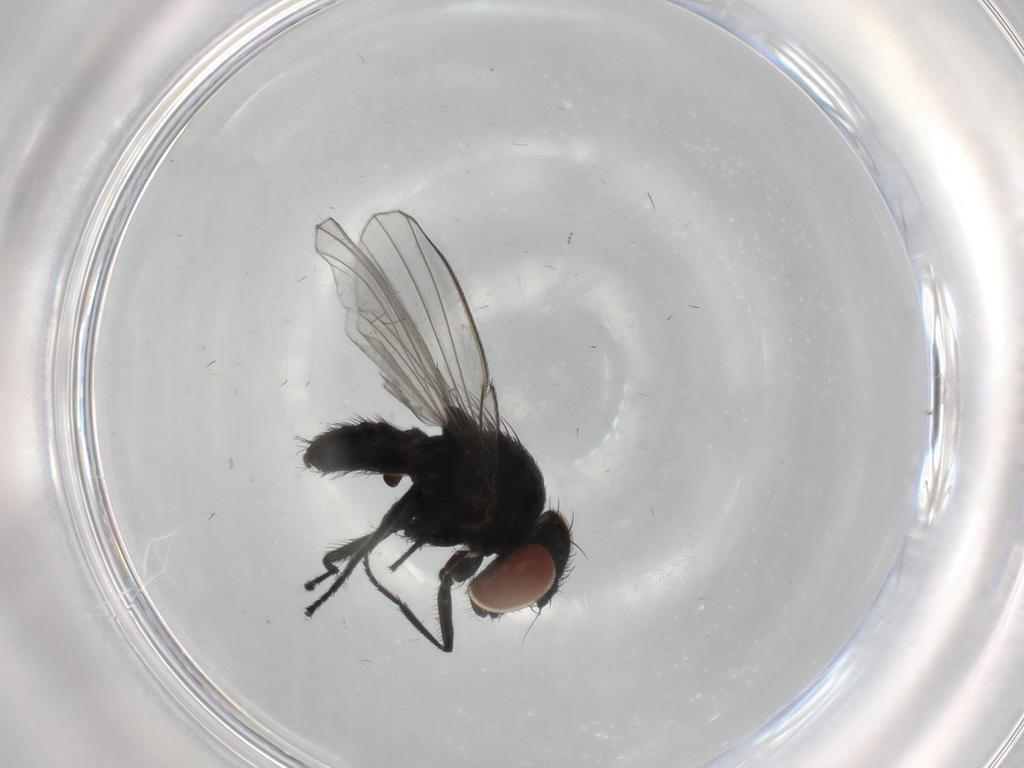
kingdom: Animalia
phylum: Arthropoda
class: Insecta
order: Diptera
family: Milichiidae
